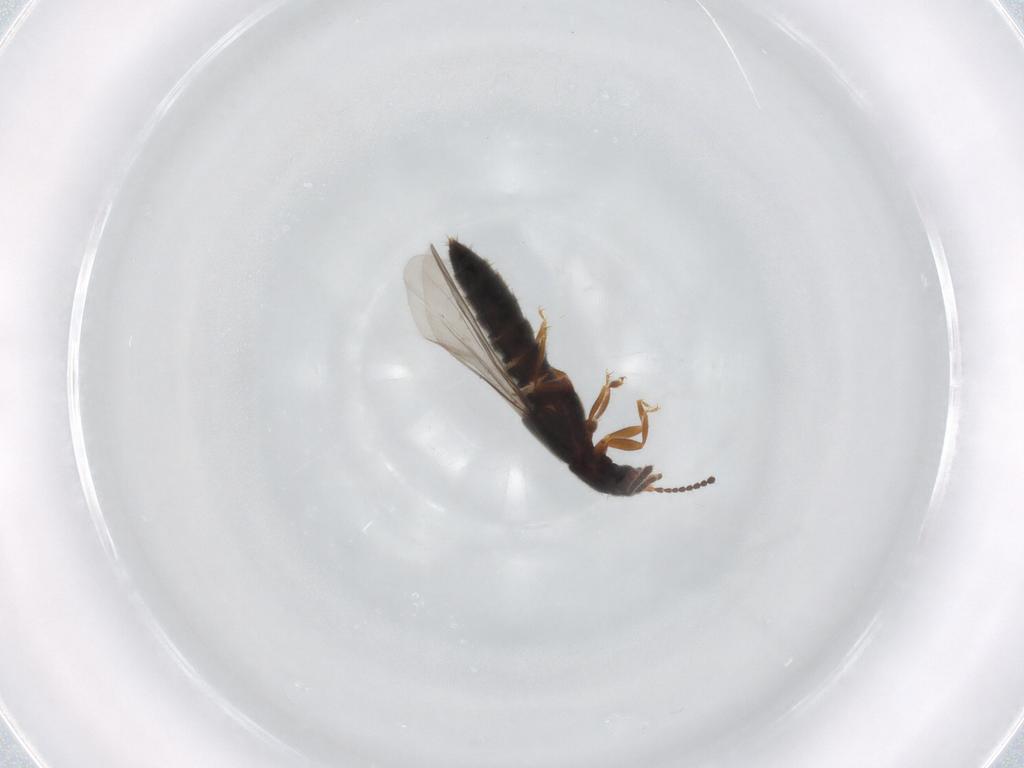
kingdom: Animalia
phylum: Arthropoda
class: Insecta
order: Coleoptera
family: Staphylinidae
